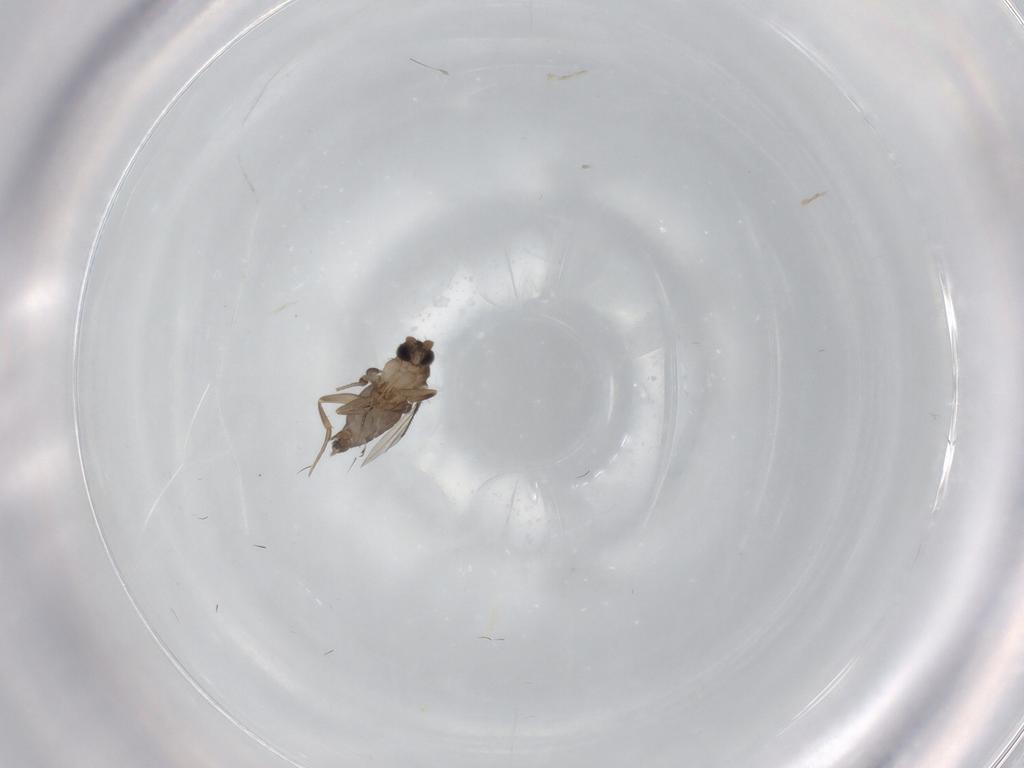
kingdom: Animalia
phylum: Arthropoda
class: Insecta
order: Diptera
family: Phoridae
